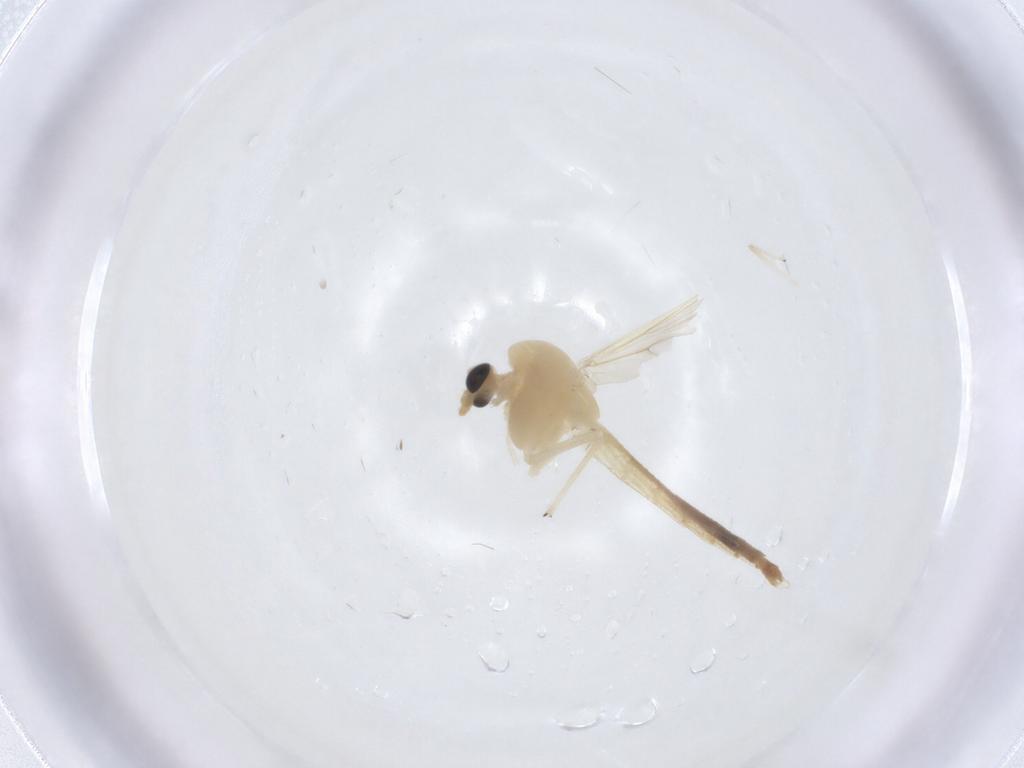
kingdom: Animalia
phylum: Arthropoda
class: Insecta
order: Diptera
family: Chironomidae
